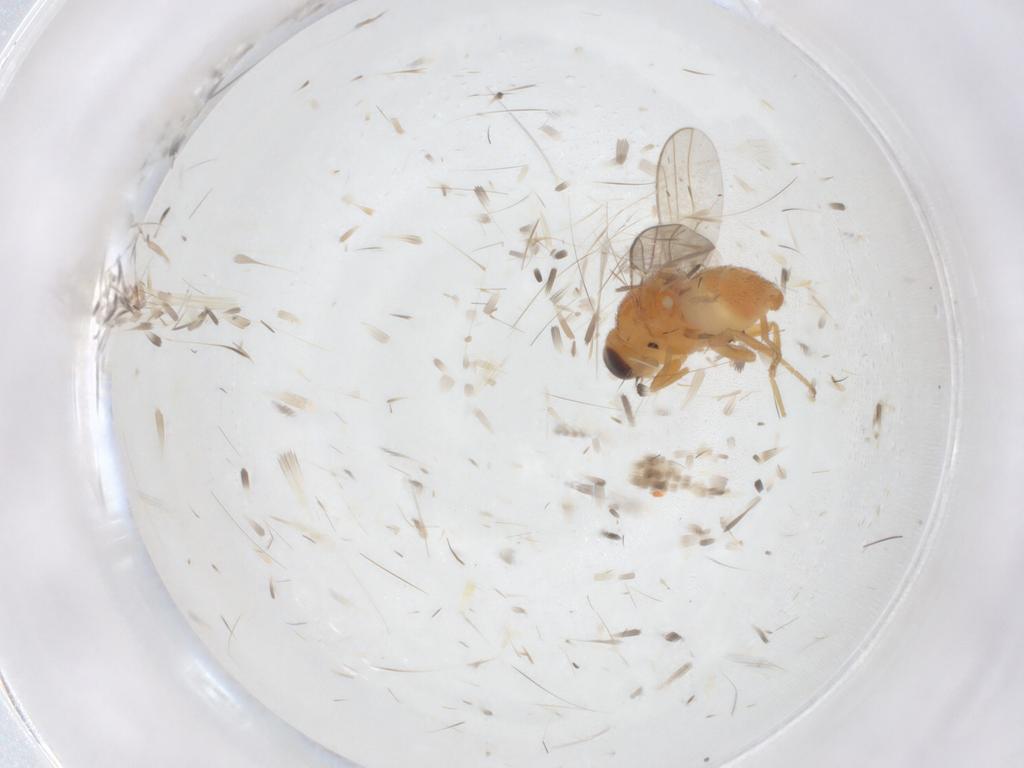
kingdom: Animalia
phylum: Arthropoda
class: Insecta
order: Diptera
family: Chloropidae
